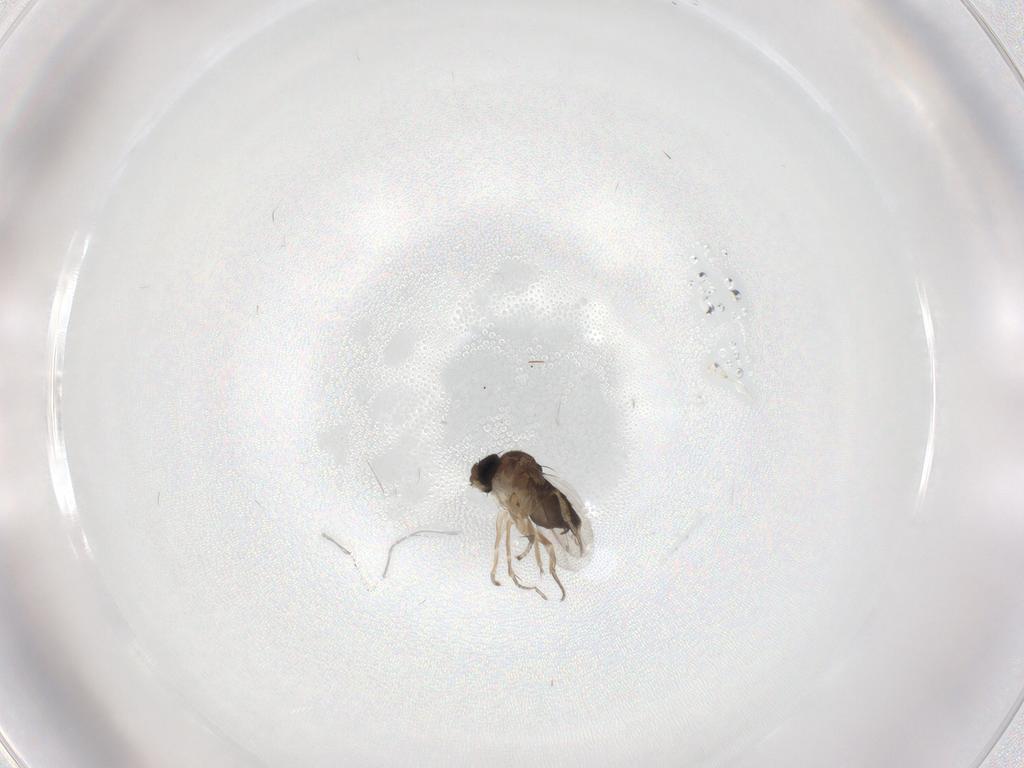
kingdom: Animalia
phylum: Arthropoda
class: Insecta
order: Diptera
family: Phoridae
